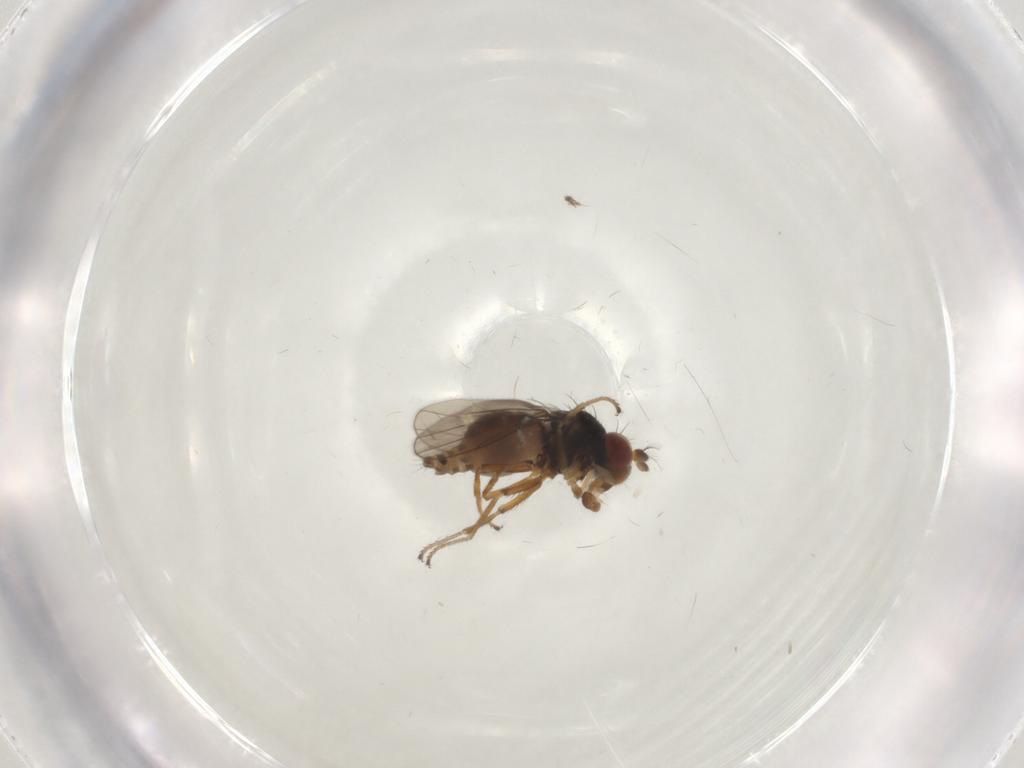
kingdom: Animalia
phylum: Arthropoda
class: Insecta
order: Diptera
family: Ephydridae
